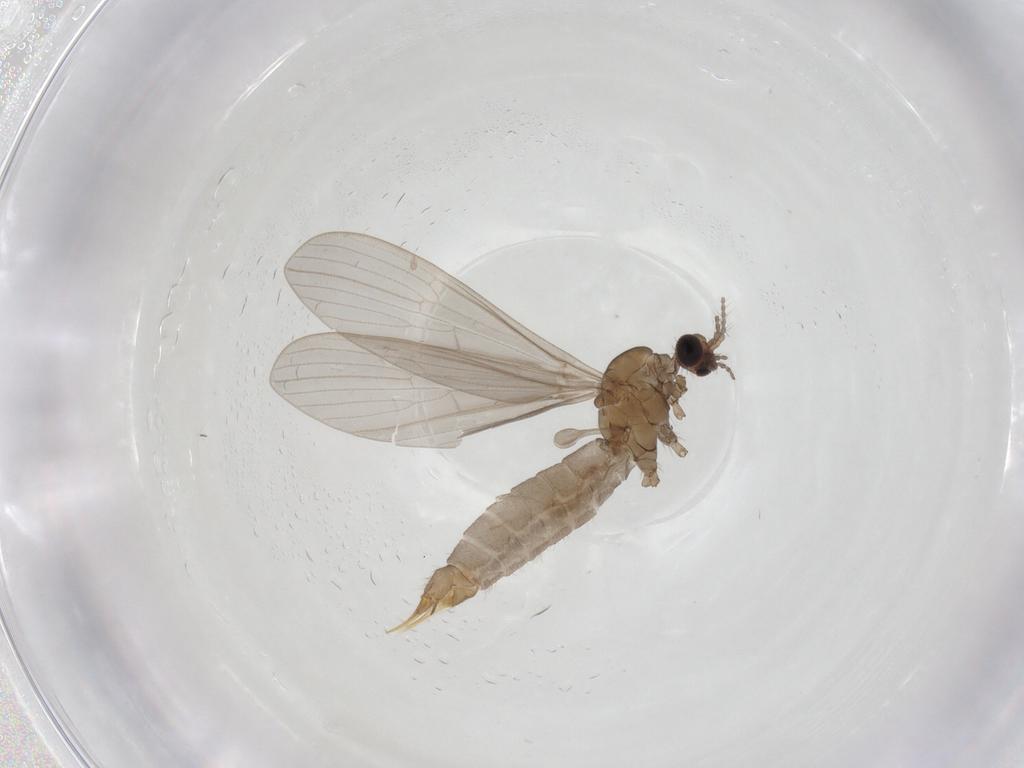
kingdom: Animalia
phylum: Arthropoda
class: Insecta
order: Diptera
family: Limoniidae
